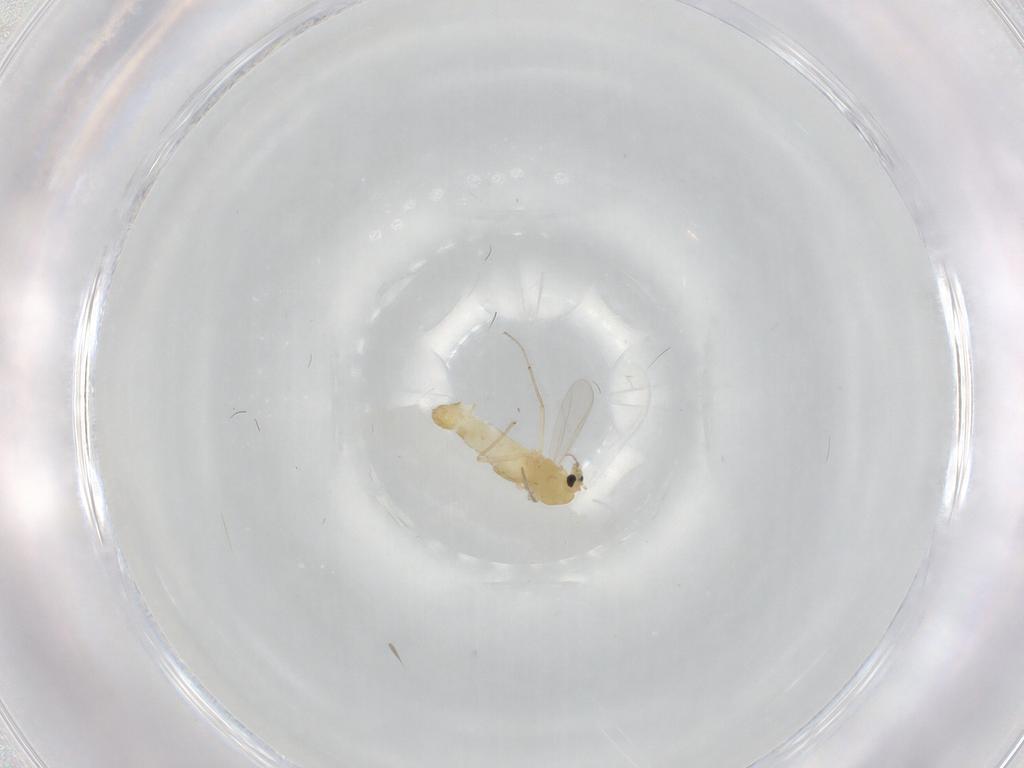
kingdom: Animalia
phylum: Arthropoda
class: Insecta
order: Diptera
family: Chironomidae
